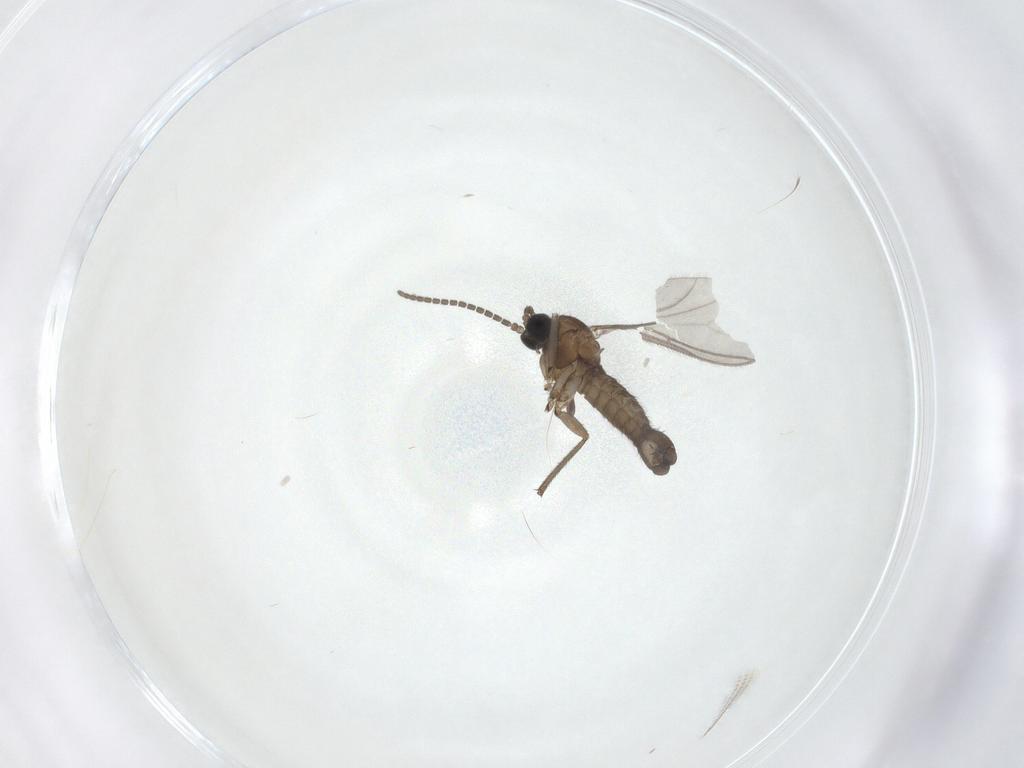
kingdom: Animalia
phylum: Arthropoda
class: Insecta
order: Diptera
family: Sciaridae
